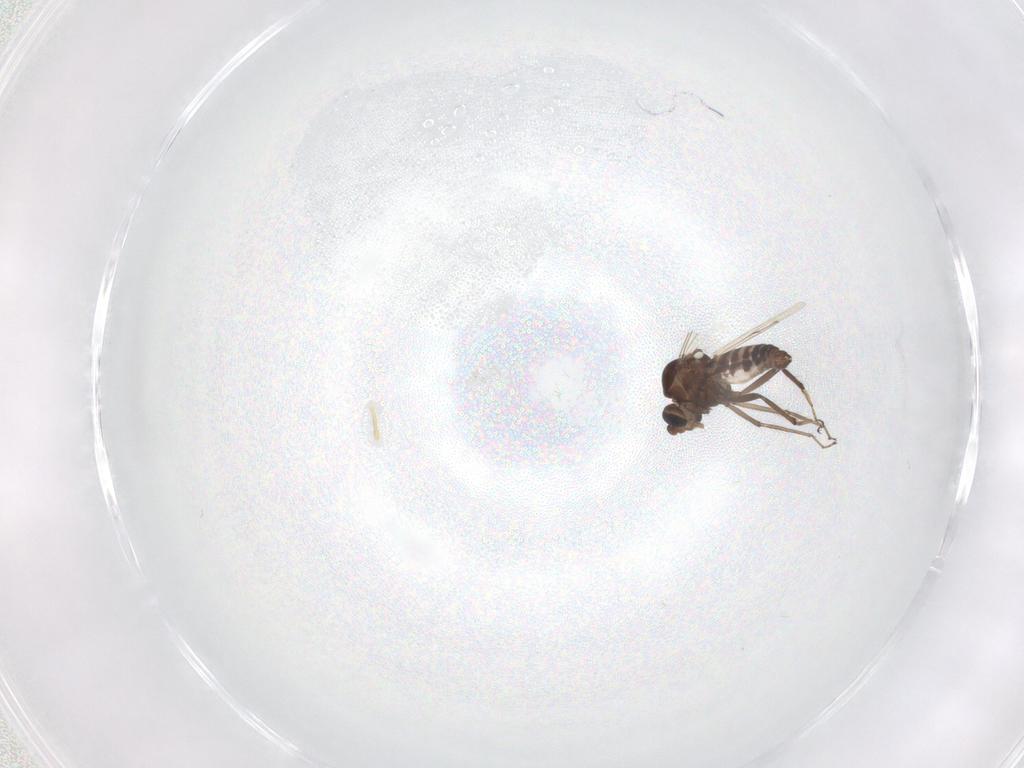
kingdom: Animalia
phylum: Arthropoda
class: Insecta
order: Diptera
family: Ceratopogonidae
